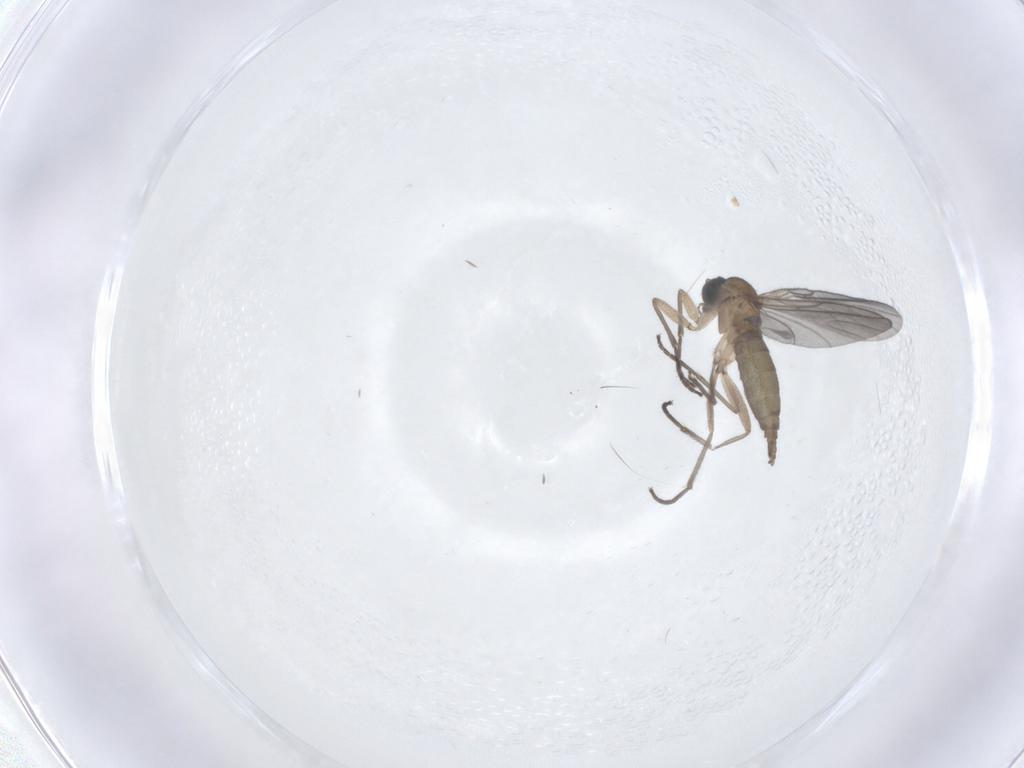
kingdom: Animalia
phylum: Arthropoda
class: Insecta
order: Diptera
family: Sciaridae
